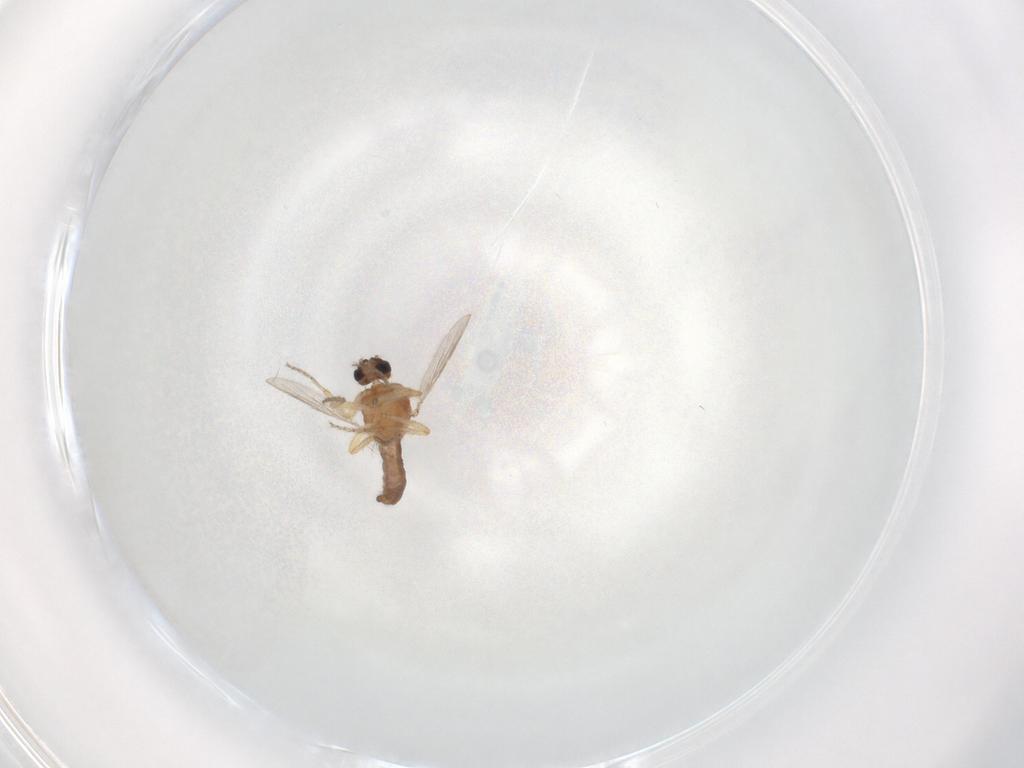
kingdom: Animalia
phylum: Arthropoda
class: Insecta
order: Diptera
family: Ceratopogonidae
